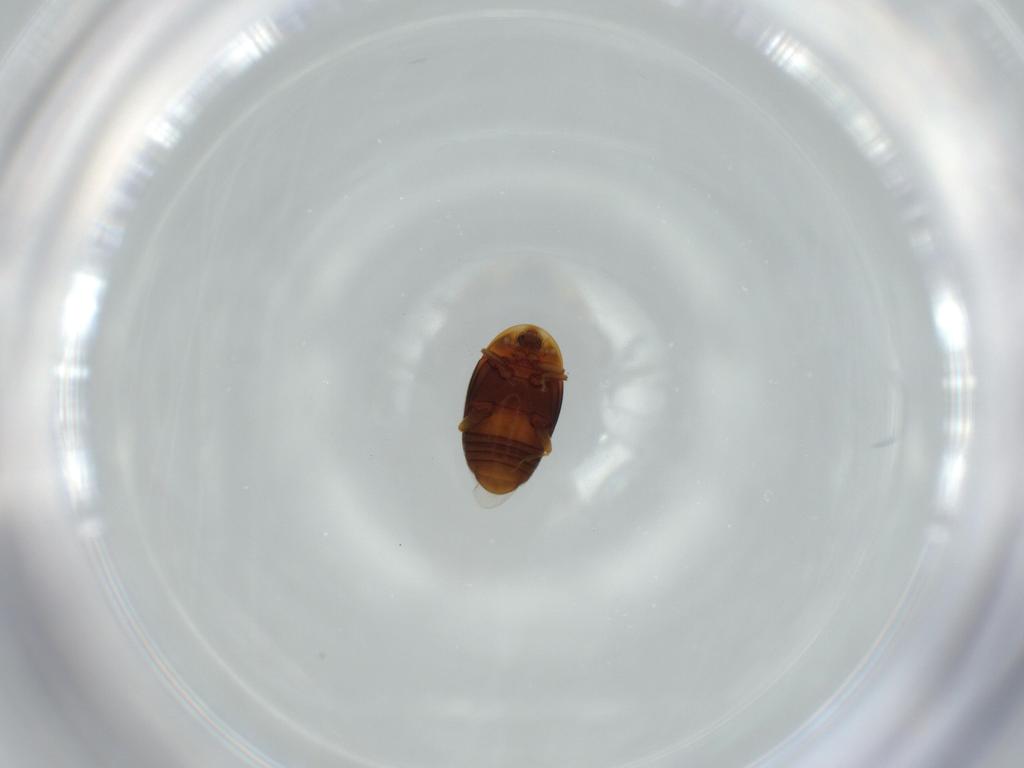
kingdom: Animalia
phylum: Arthropoda
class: Insecta
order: Coleoptera
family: Corylophidae
